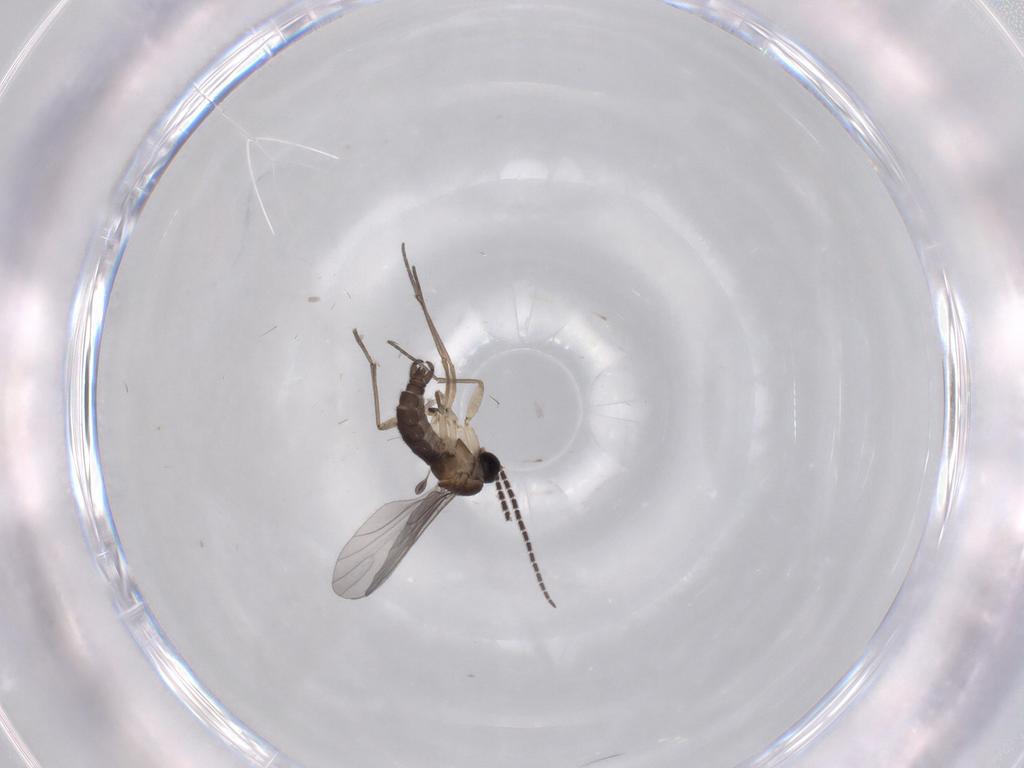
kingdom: Animalia
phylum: Arthropoda
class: Insecta
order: Diptera
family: Sciaridae
